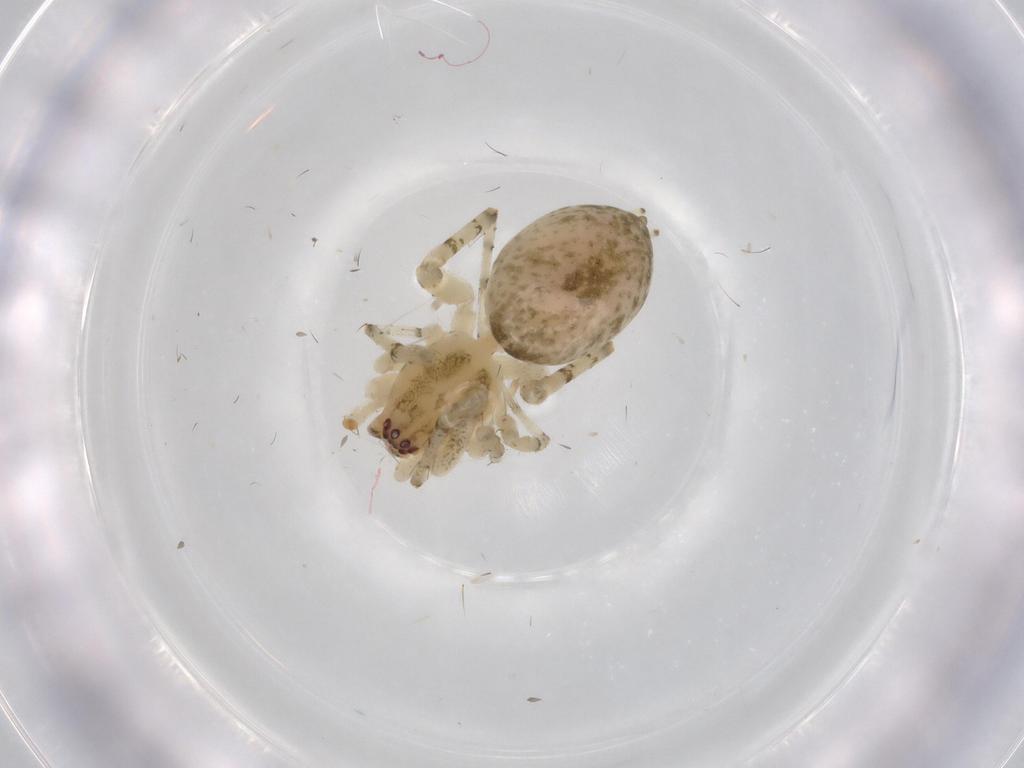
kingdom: Animalia
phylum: Arthropoda
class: Arachnida
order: Araneae
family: Anyphaenidae
